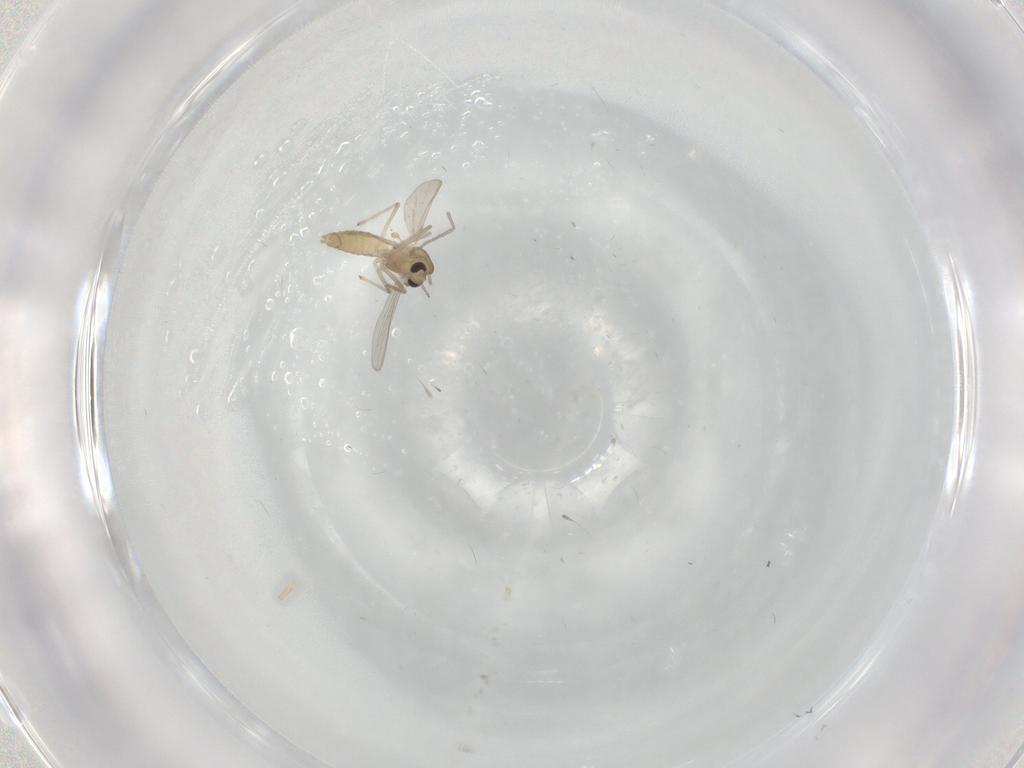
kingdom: Animalia
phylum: Arthropoda
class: Insecta
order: Diptera
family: Chironomidae
